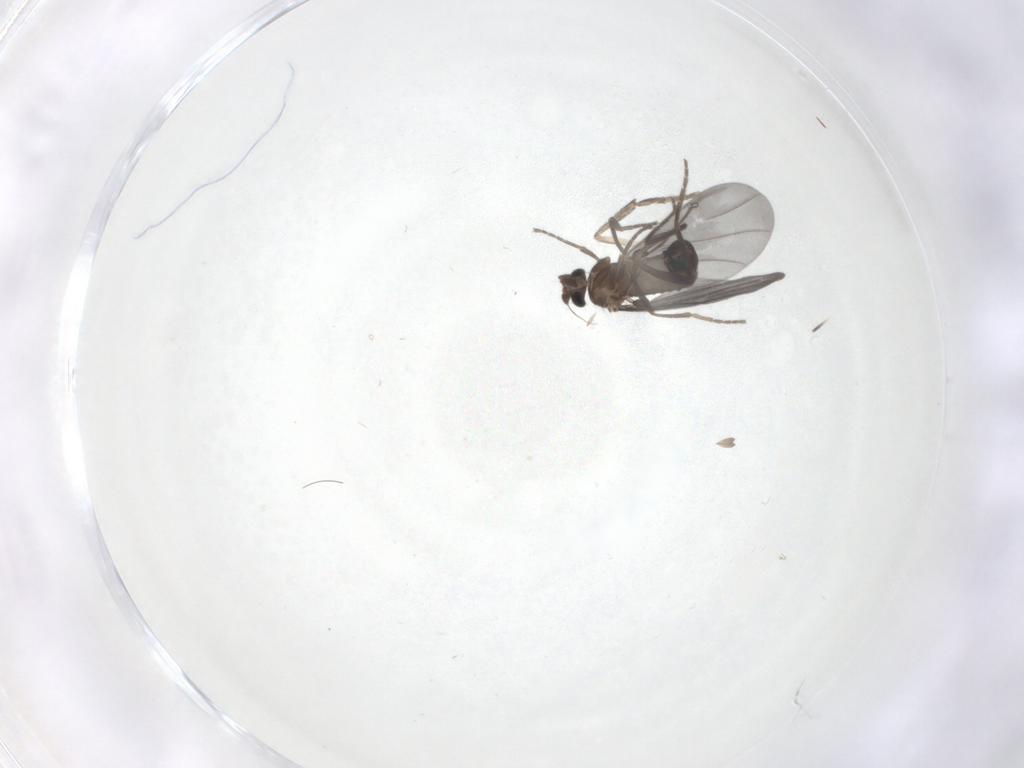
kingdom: Animalia
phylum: Arthropoda
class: Insecta
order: Diptera
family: Phoridae
